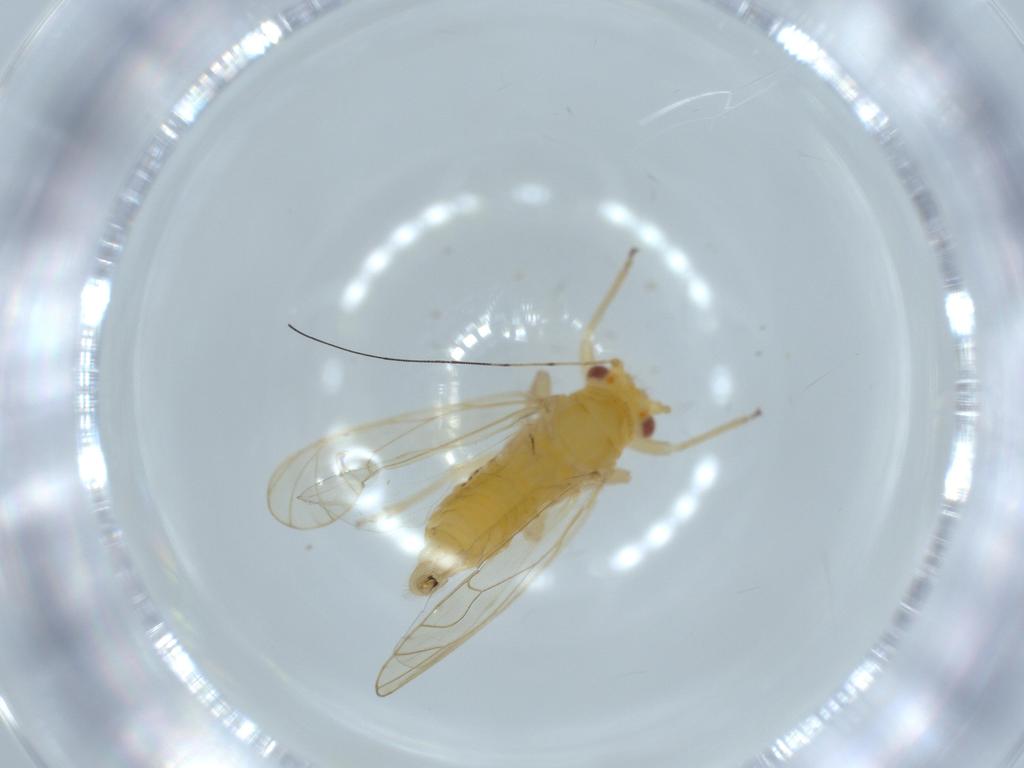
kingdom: Animalia
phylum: Arthropoda
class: Insecta
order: Hemiptera
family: Psyllidae
